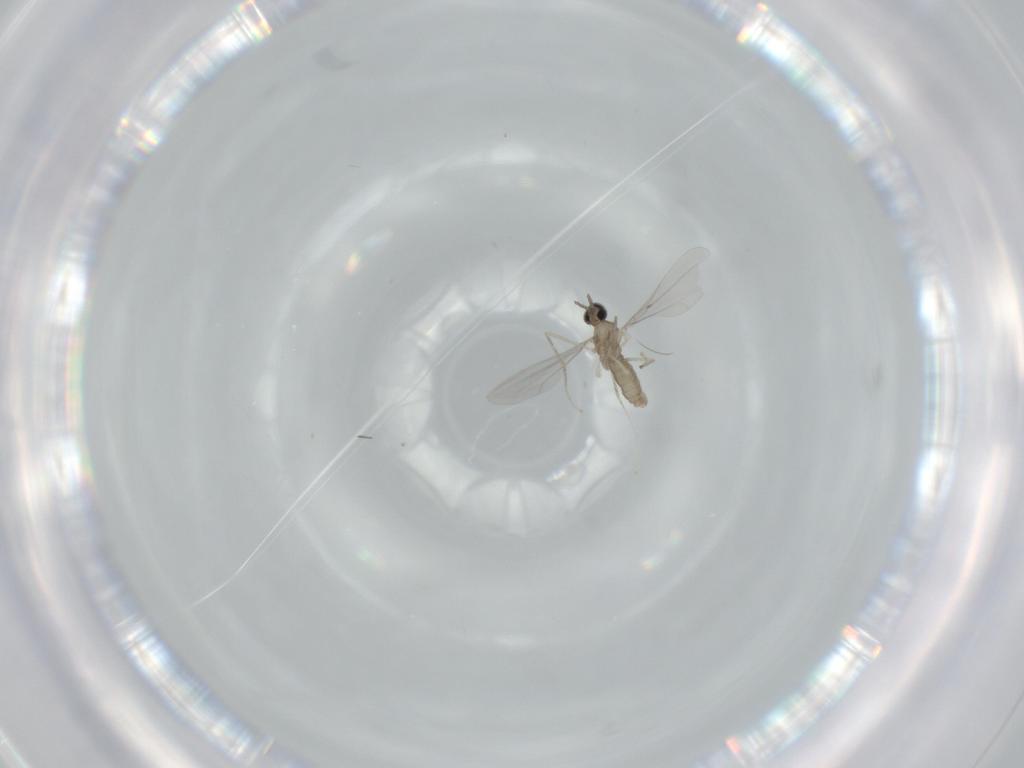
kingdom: Animalia
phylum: Arthropoda
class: Insecta
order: Diptera
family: Cecidomyiidae
